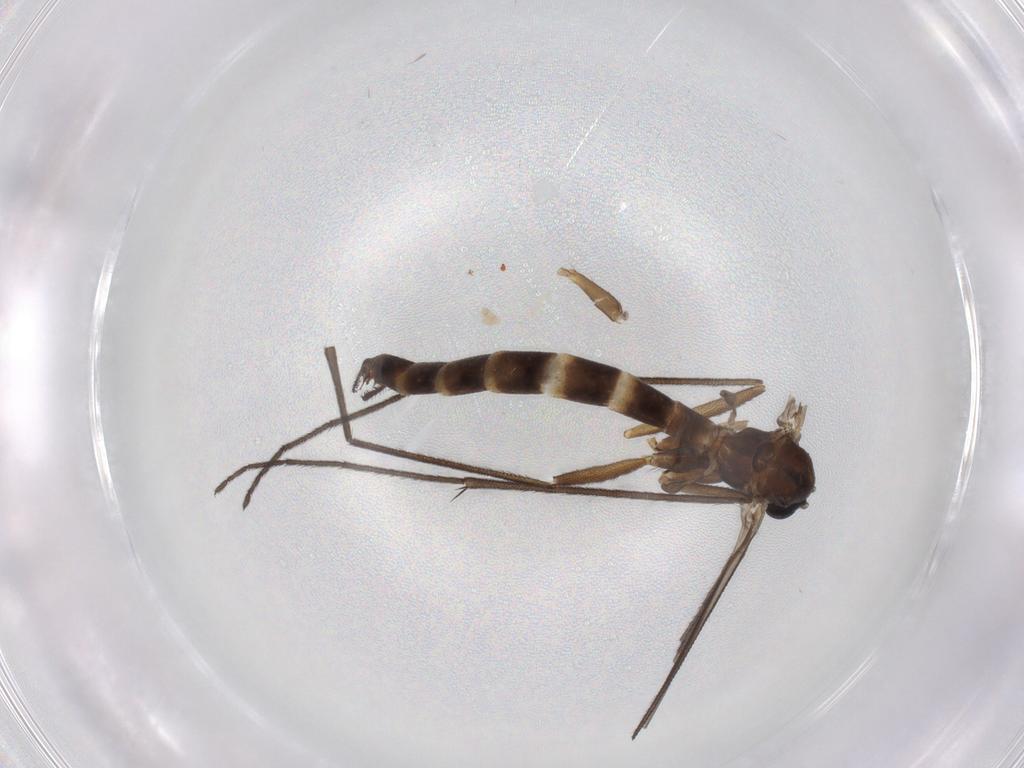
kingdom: Animalia
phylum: Arthropoda
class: Insecta
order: Diptera
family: Keroplatidae
